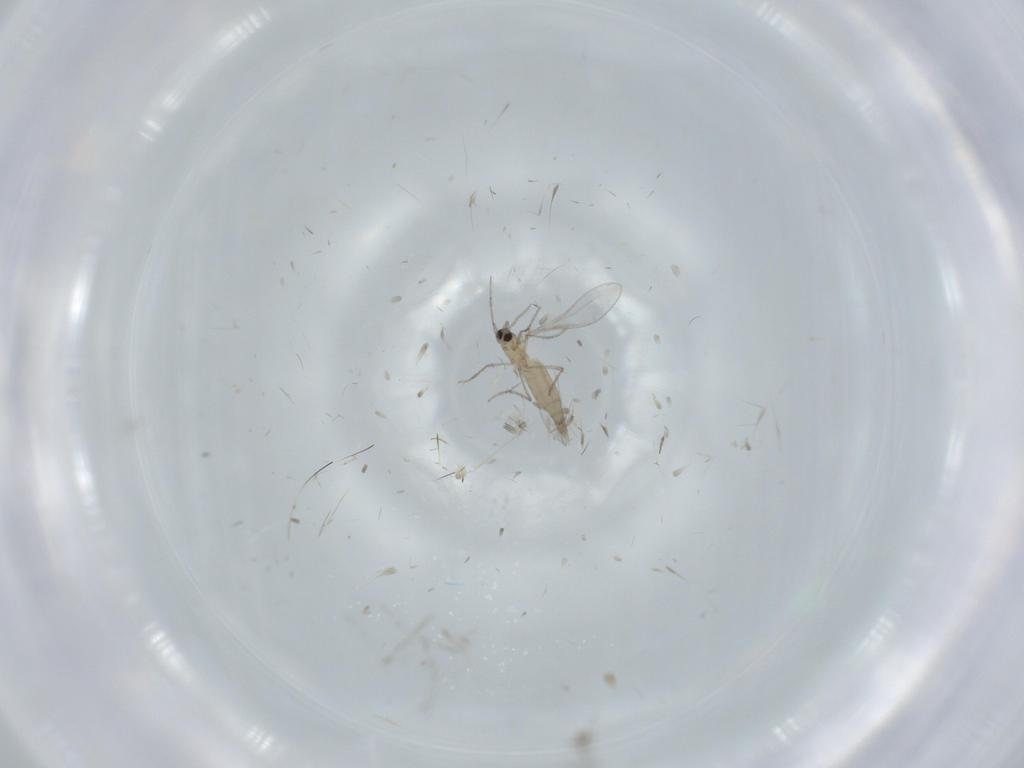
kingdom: Animalia
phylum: Arthropoda
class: Insecta
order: Diptera
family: Cecidomyiidae
